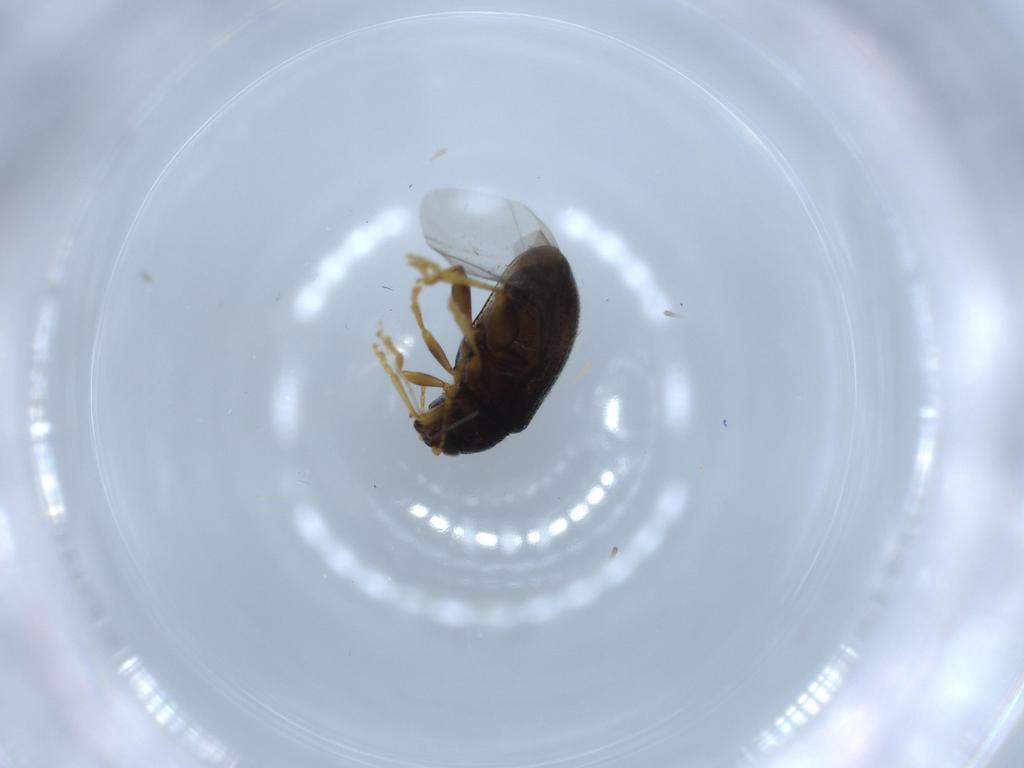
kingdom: Animalia
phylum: Arthropoda
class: Insecta
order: Coleoptera
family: Chrysomelidae
